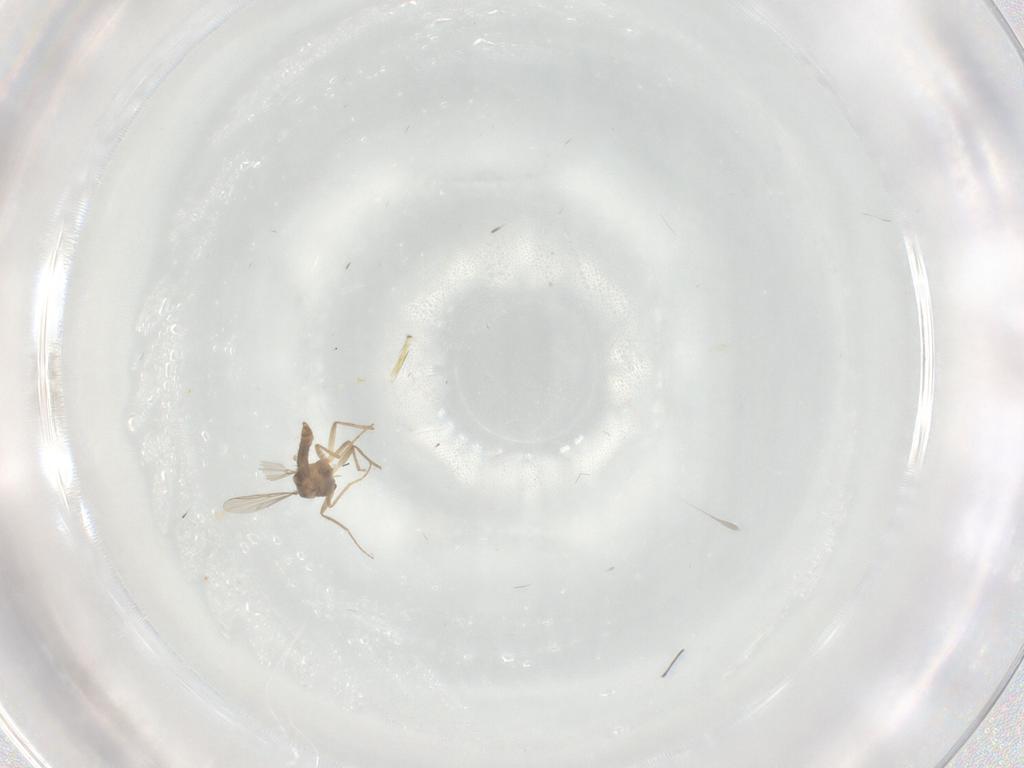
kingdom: Animalia
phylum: Arthropoda
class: Insecta
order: Diptera
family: Chironomidae
